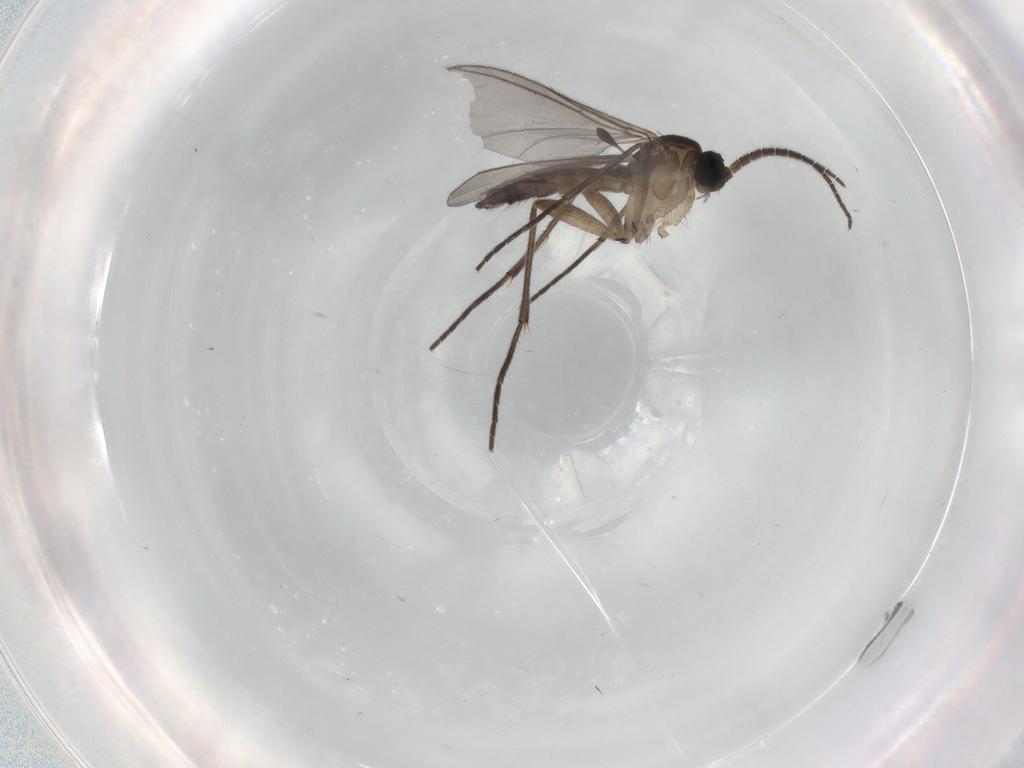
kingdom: Animalia
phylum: Arthropoda
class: Insecta
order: Diptera
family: Sciaridae
